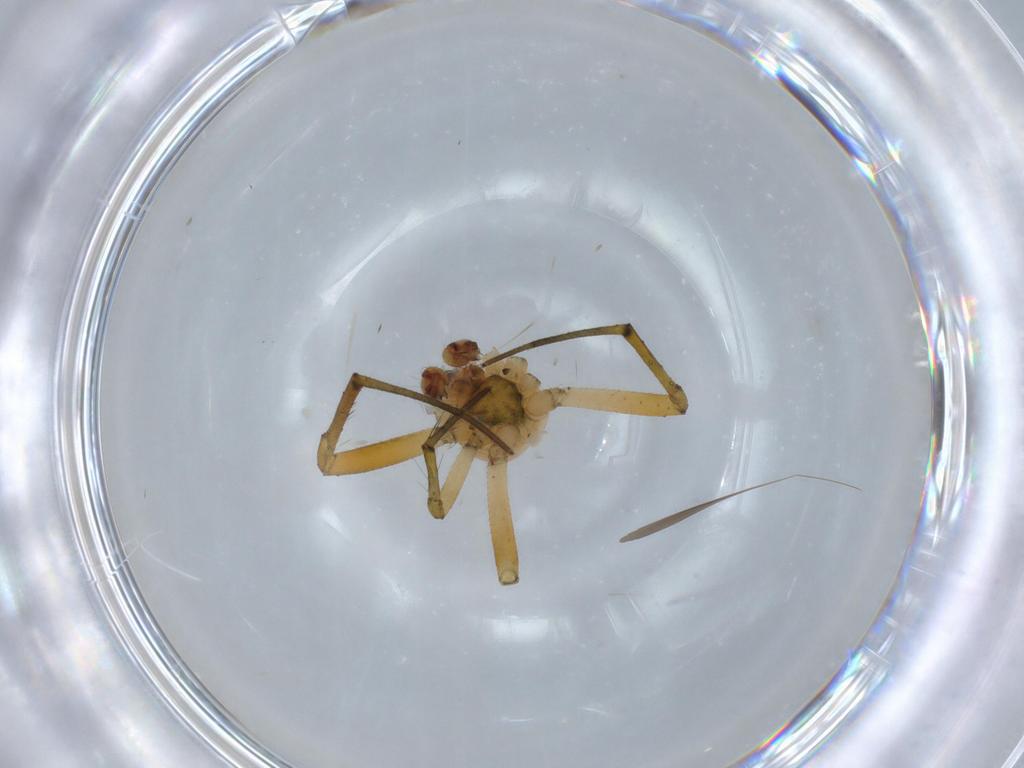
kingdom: Animalia
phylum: Arthropoda
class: Arachnida
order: Araneae
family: Araneidae
